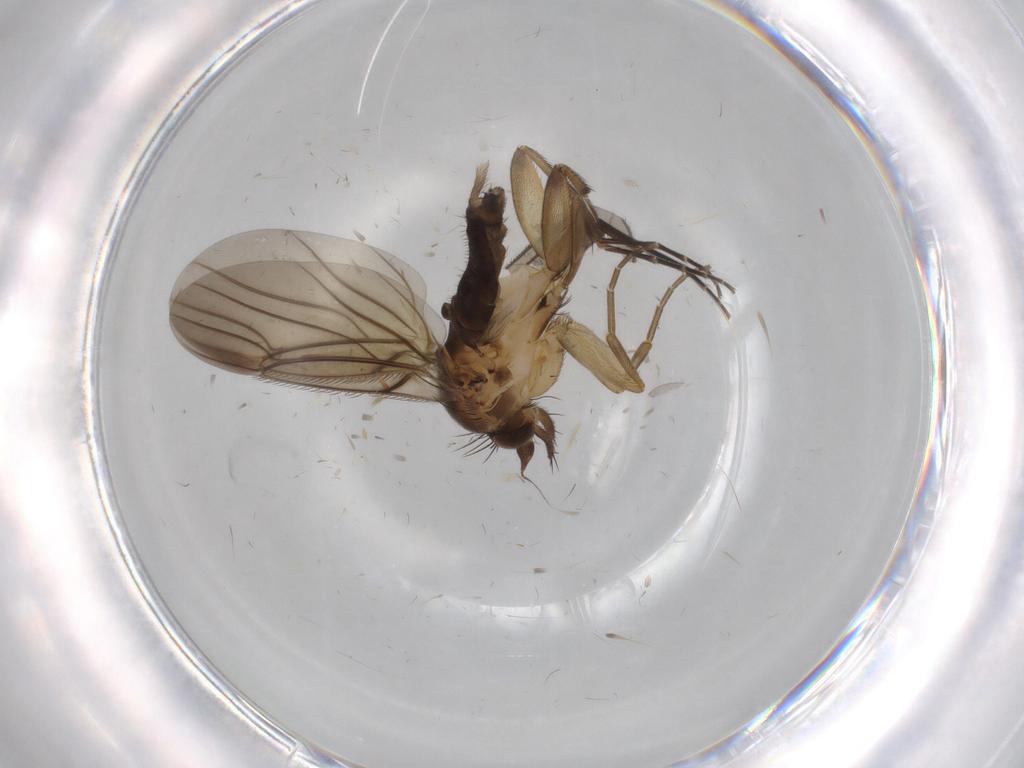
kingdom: Animalia
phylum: Arthropoda
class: Insecta
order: Diptera
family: Phoridae
